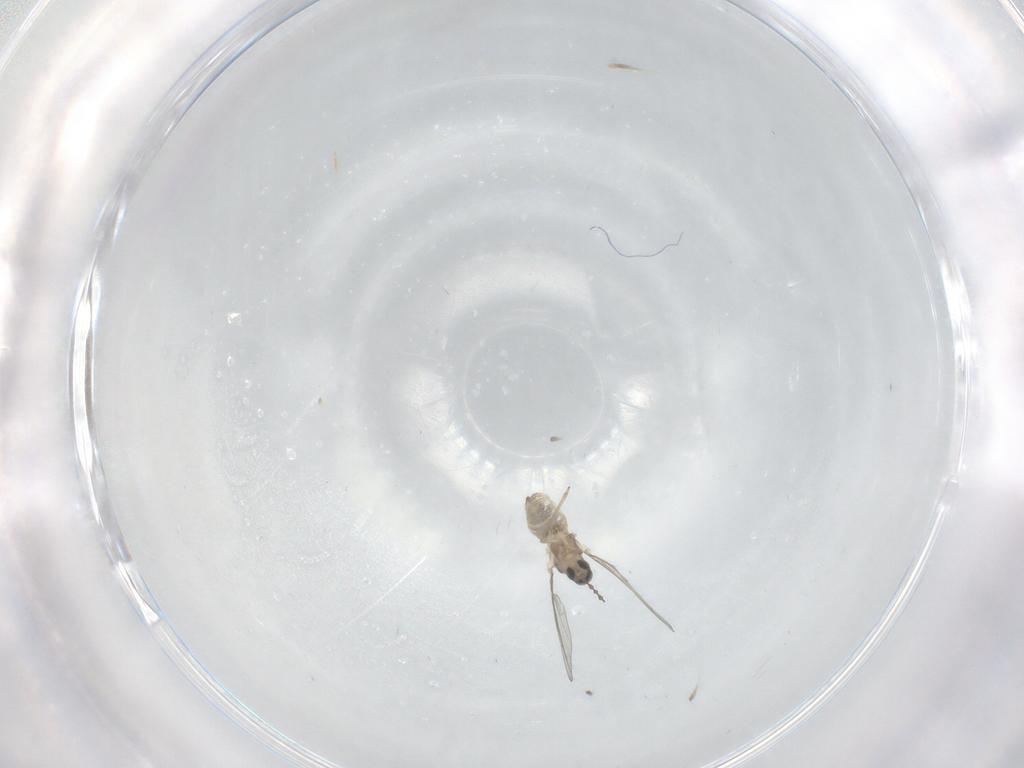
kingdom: Animalia
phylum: Arthropoda
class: Insecta
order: Diptera
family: Cecidomyiidae
